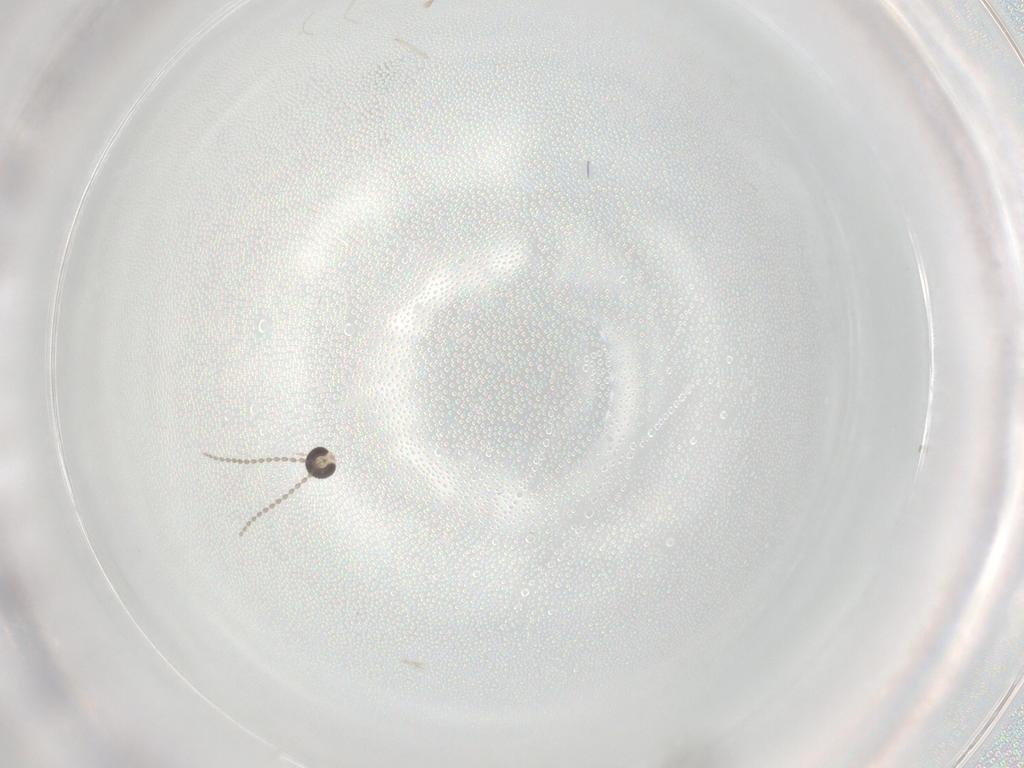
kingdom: Animalia
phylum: Arthropoda
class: Insecta
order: Diptera
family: Cecidomyiidae
